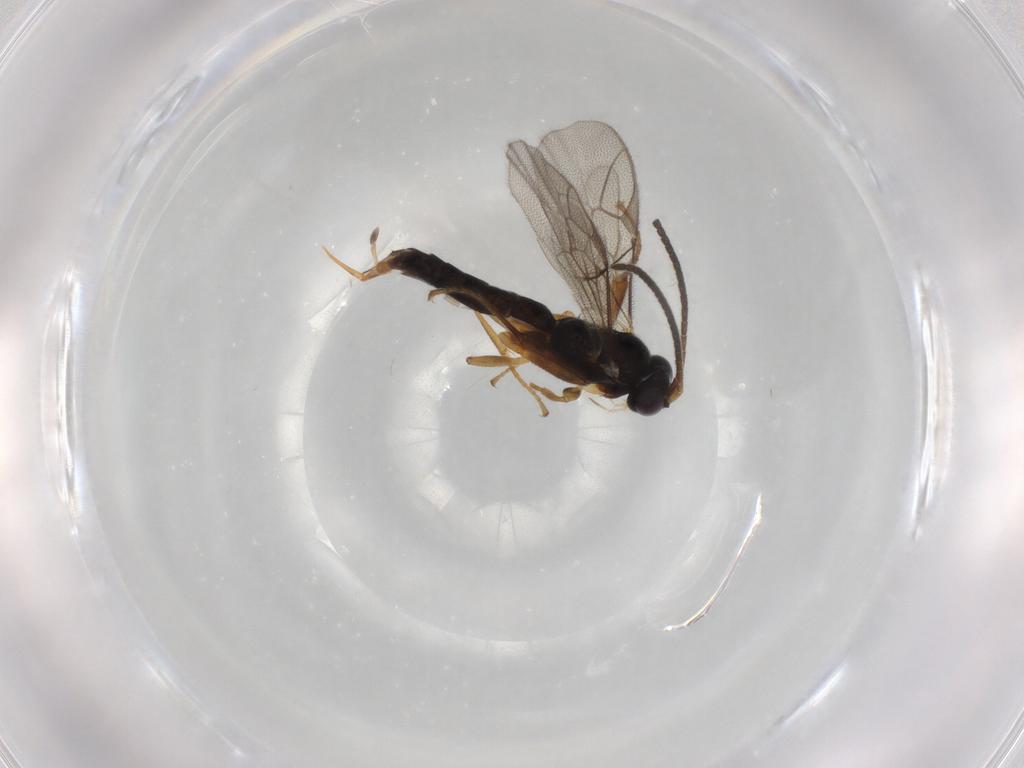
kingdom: Animalia
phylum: Arthropoda
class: Insecta
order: Hymenoptera
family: Ichneumonidae
